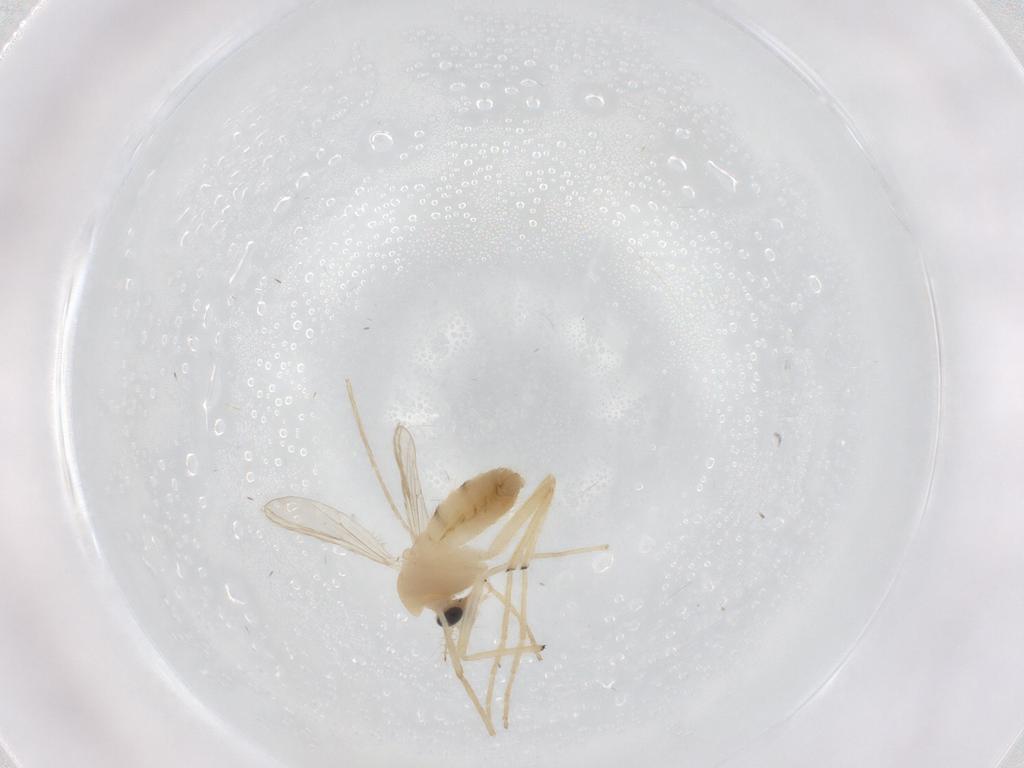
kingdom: Animalia
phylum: Arthropoda
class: Insecta
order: Diptera
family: Chironomidae
